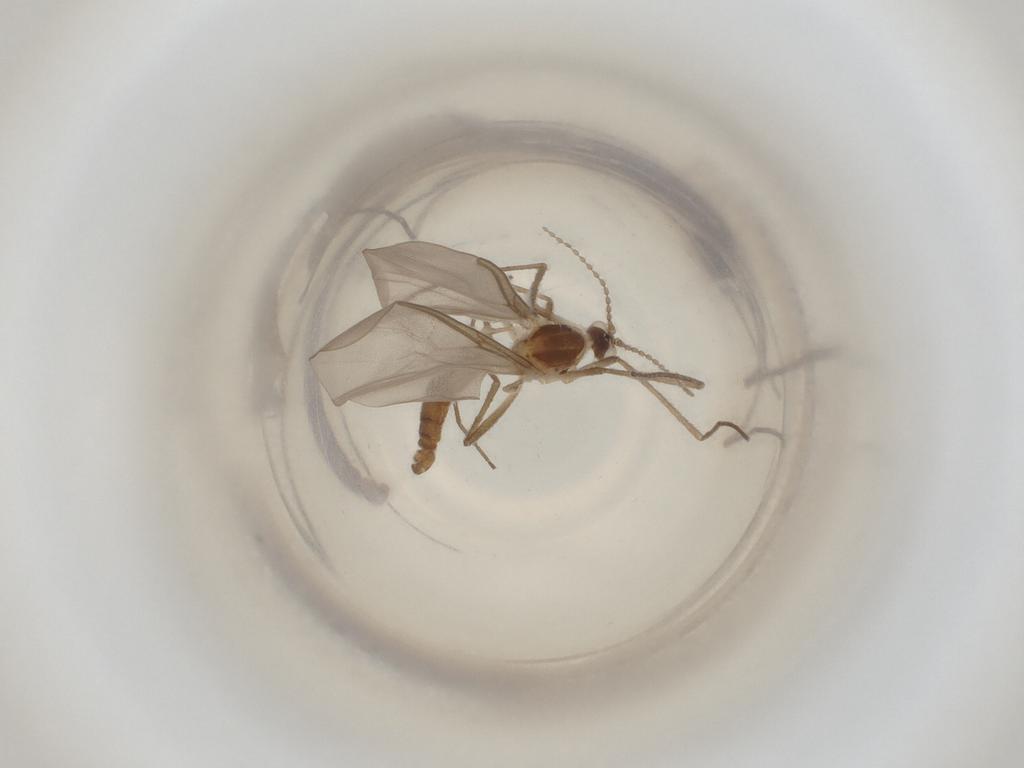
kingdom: Animalia
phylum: Arthropoda
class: Insecta
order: Diptera
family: Cecidomyiidae
